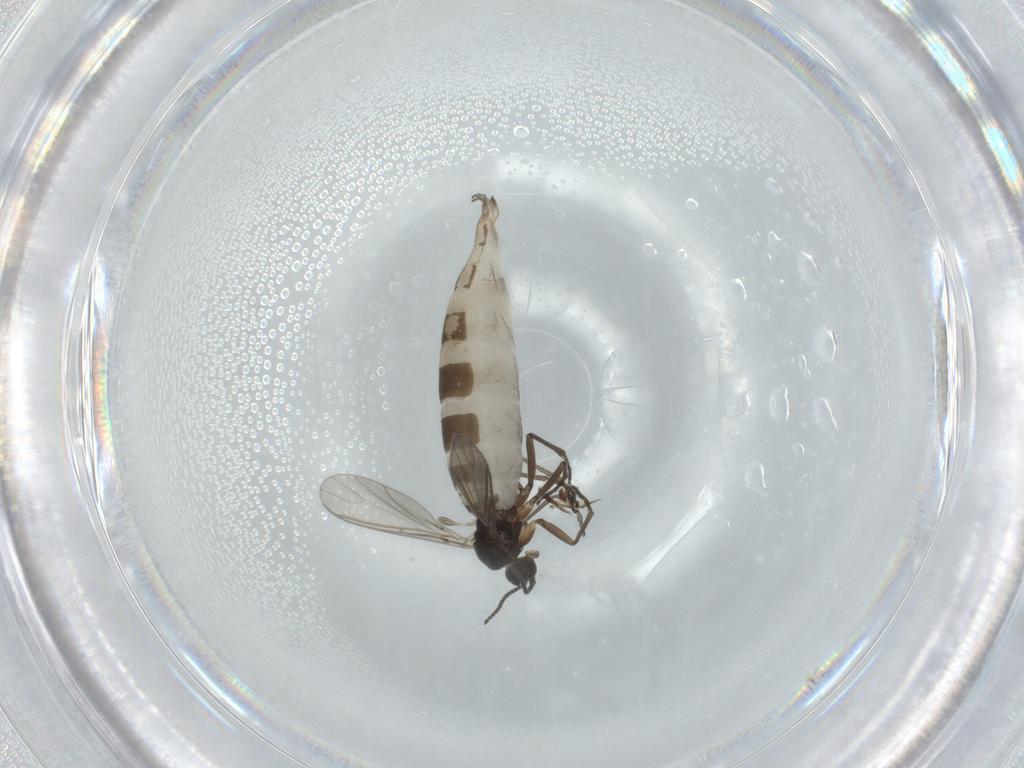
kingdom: Animalia
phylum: Arthropoda
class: Insecta
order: Diptera
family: Sciaridae
